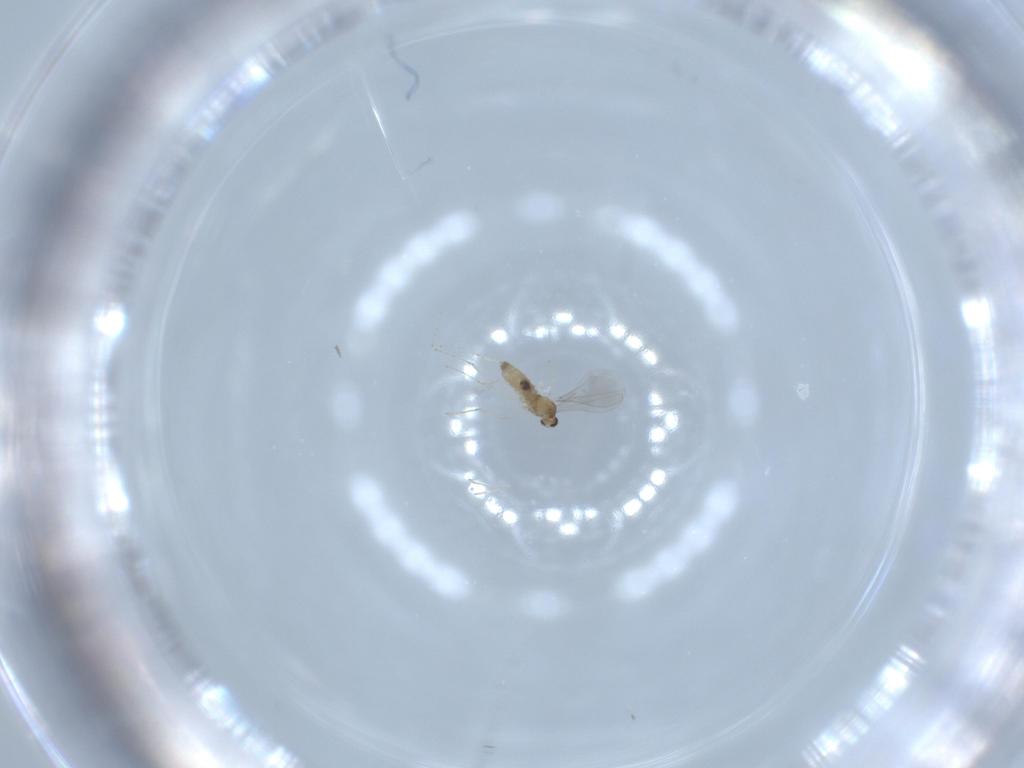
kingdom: Animalia
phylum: Arthropoda
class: Insecta
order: Diptera
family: Cecidomyiidae
